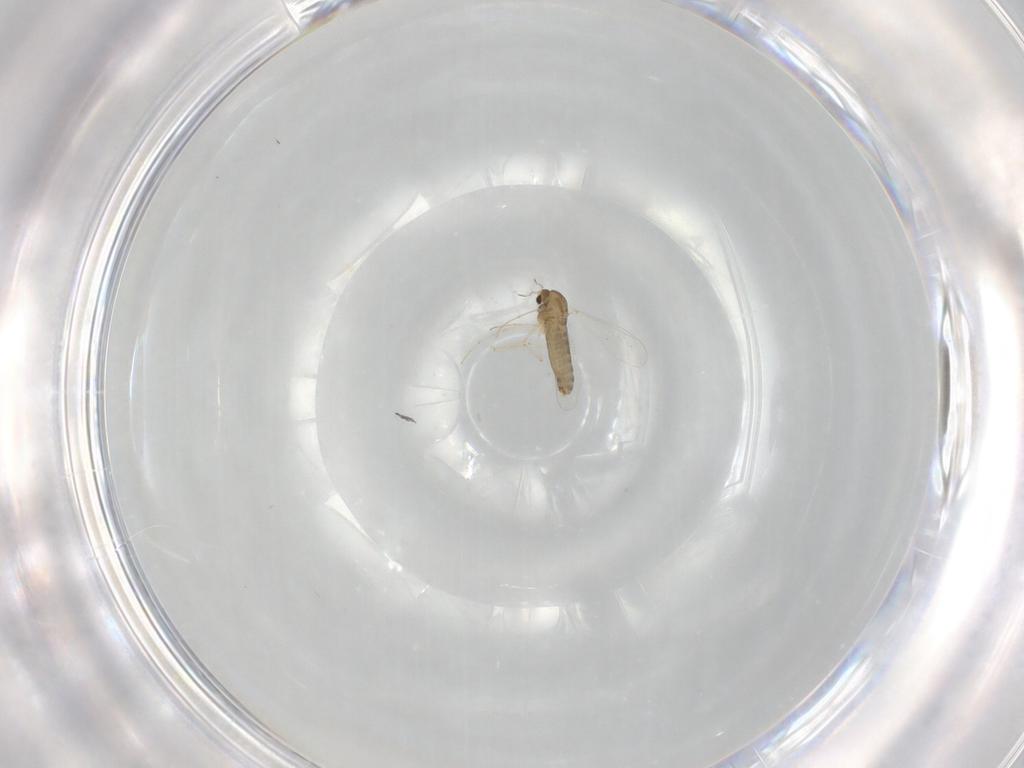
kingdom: Animalia
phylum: Arthropoda
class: Insecta
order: Diptera
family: Chironomidae
